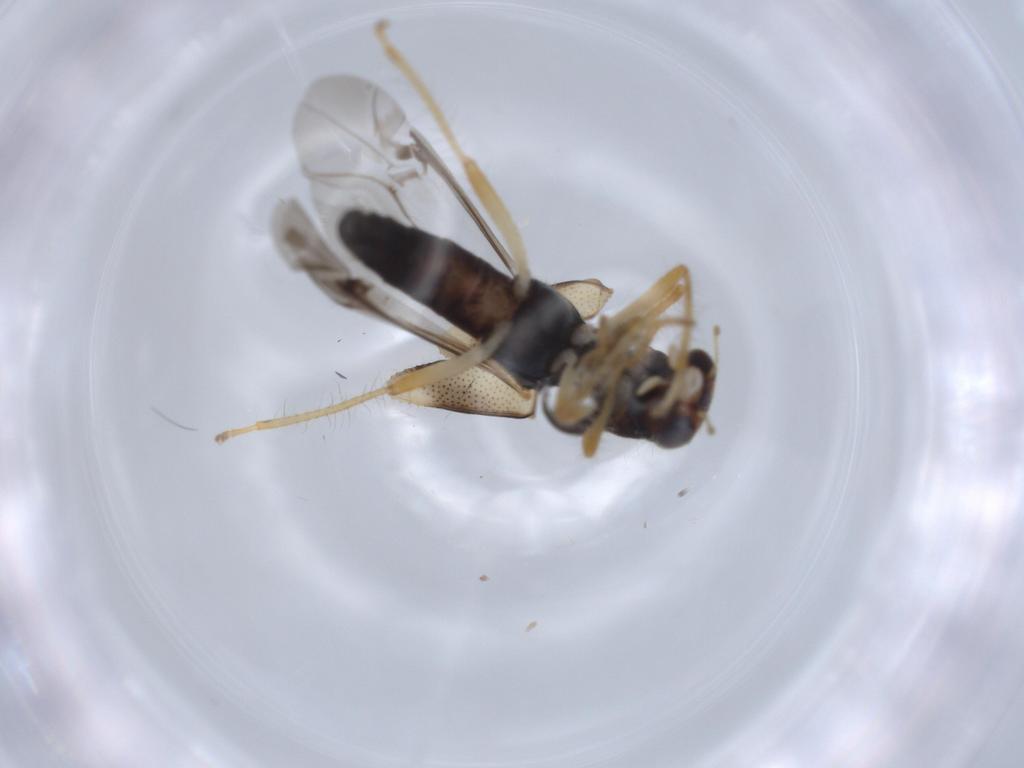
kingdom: Animalia
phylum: Arthropoda
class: Insecta
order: Coleoptera
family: Cleridae
